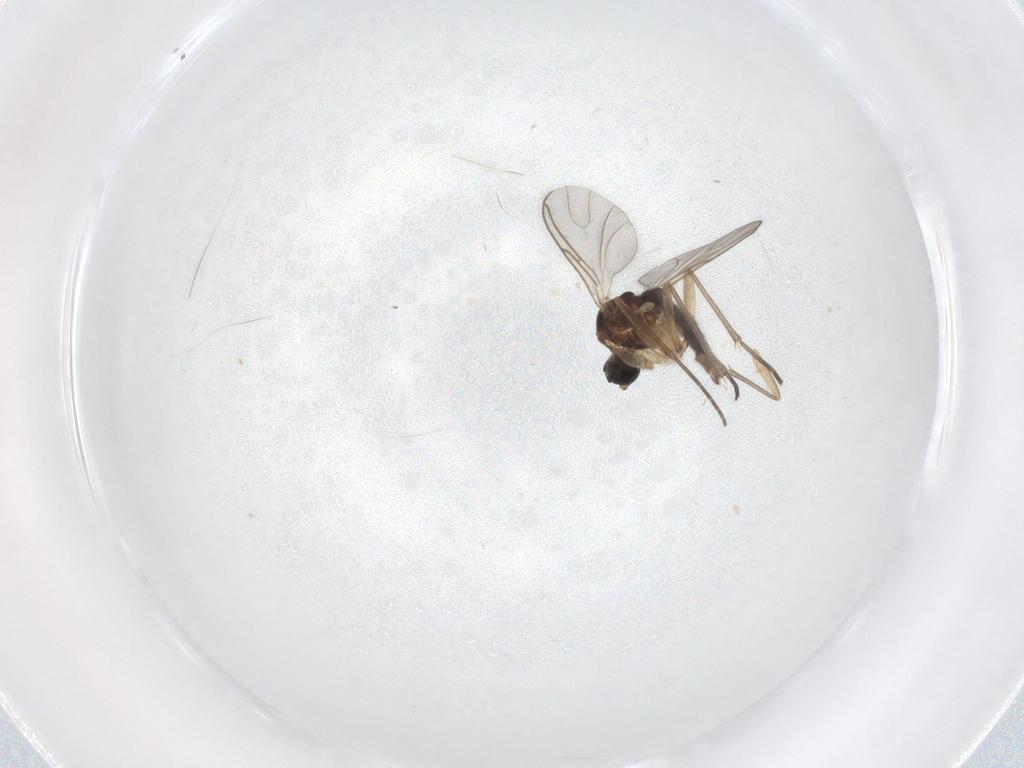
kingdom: Animalia
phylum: Arthropoda
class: Insecta
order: Diptera
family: Sciaridae
